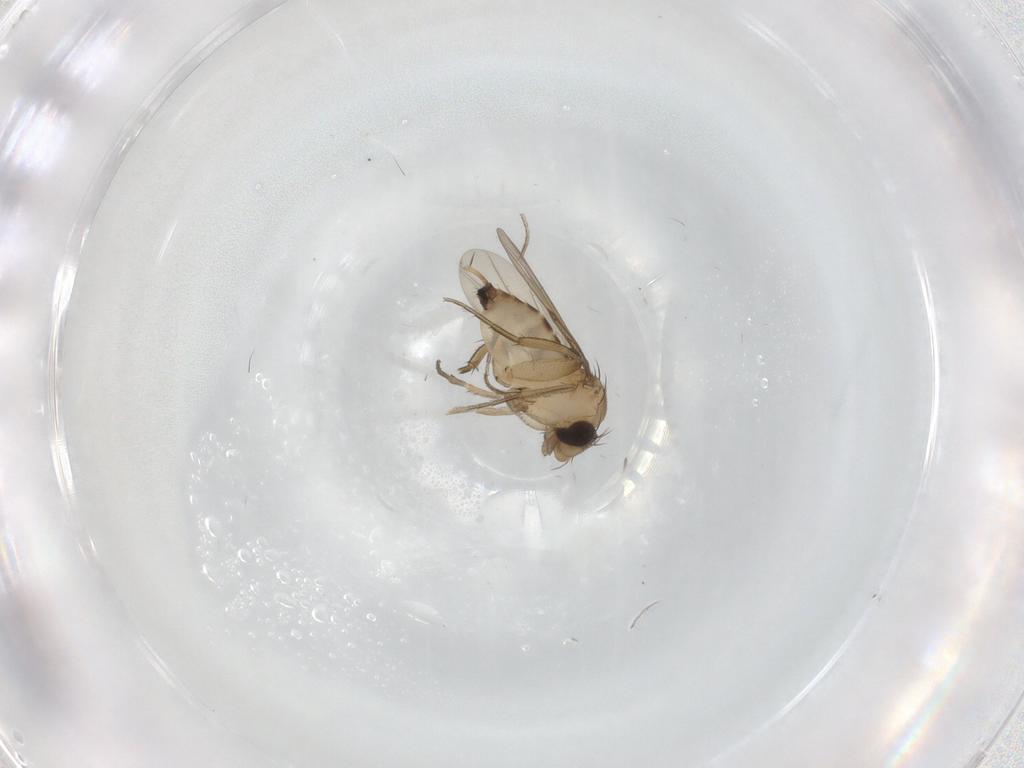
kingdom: Animalia
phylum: Arthropoda
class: Insecta
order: Diptera
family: Phoridae
